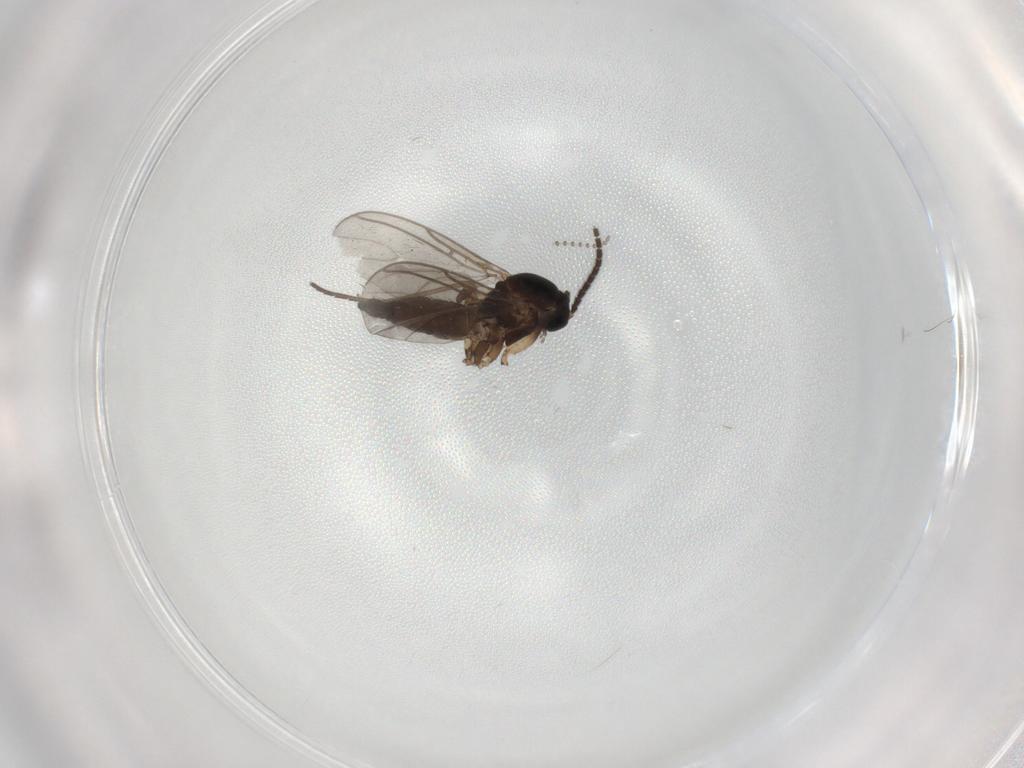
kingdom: Animalia
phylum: Arthropoda
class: Insecta
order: Diptera
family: Sciaridae
